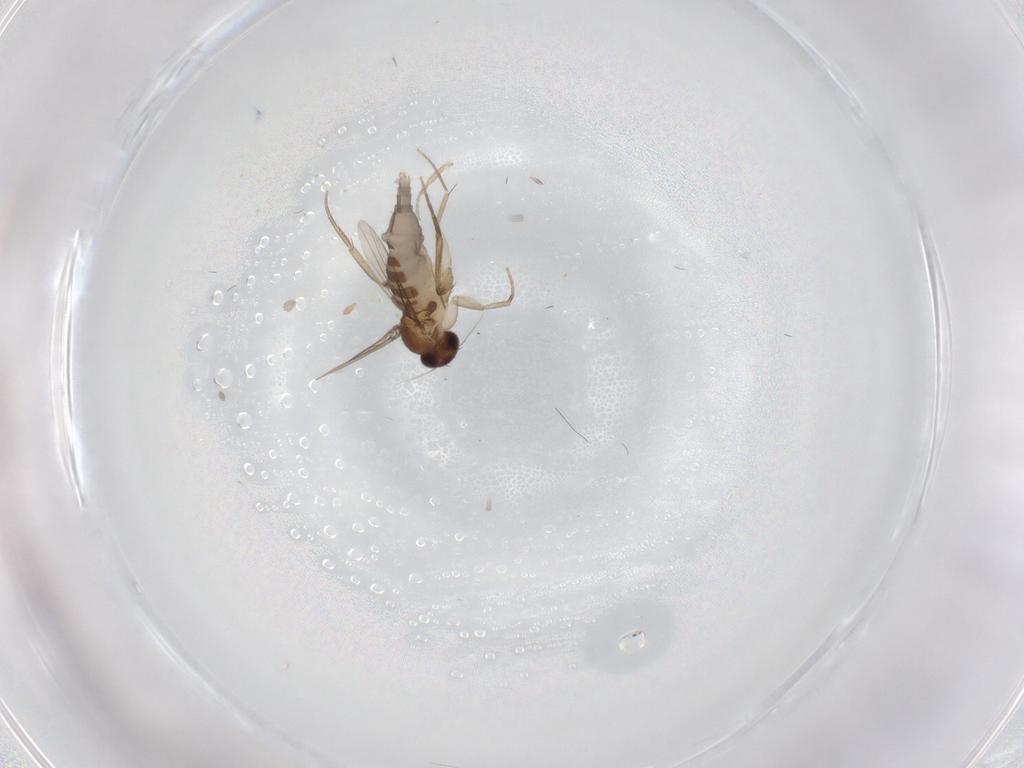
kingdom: Animalia
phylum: Arthropoda
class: Insecta
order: Diptera
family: Phoridae
